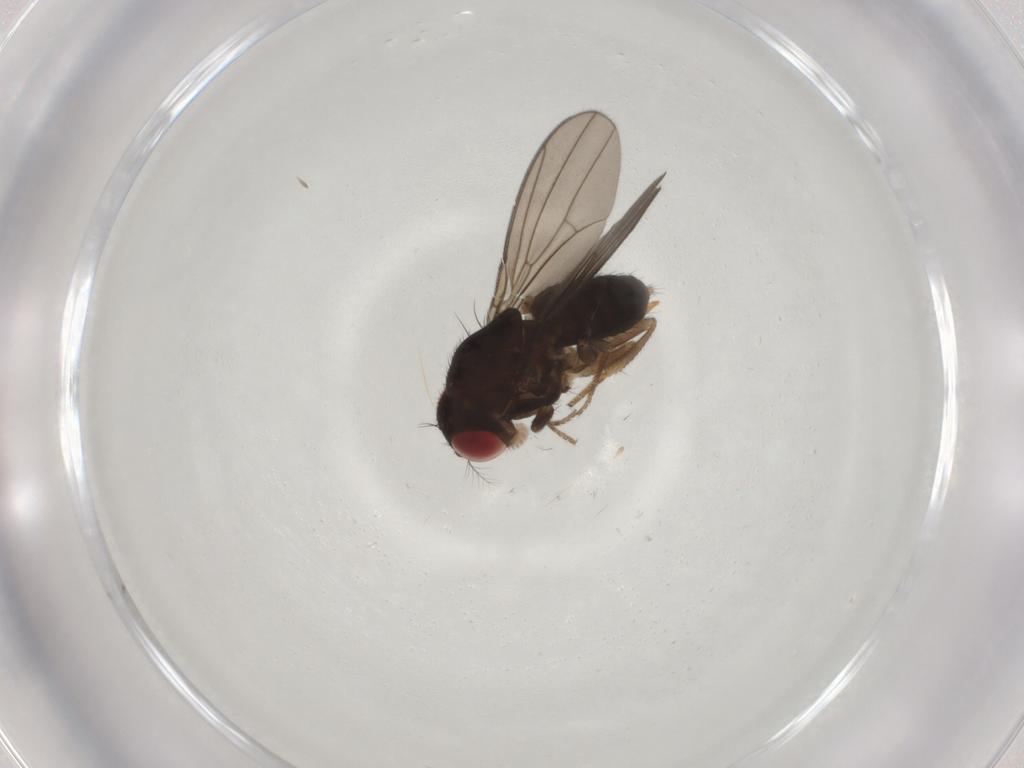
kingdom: Animalia
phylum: Arthropoda
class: Insecta
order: Diptera
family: Drosophilidae
